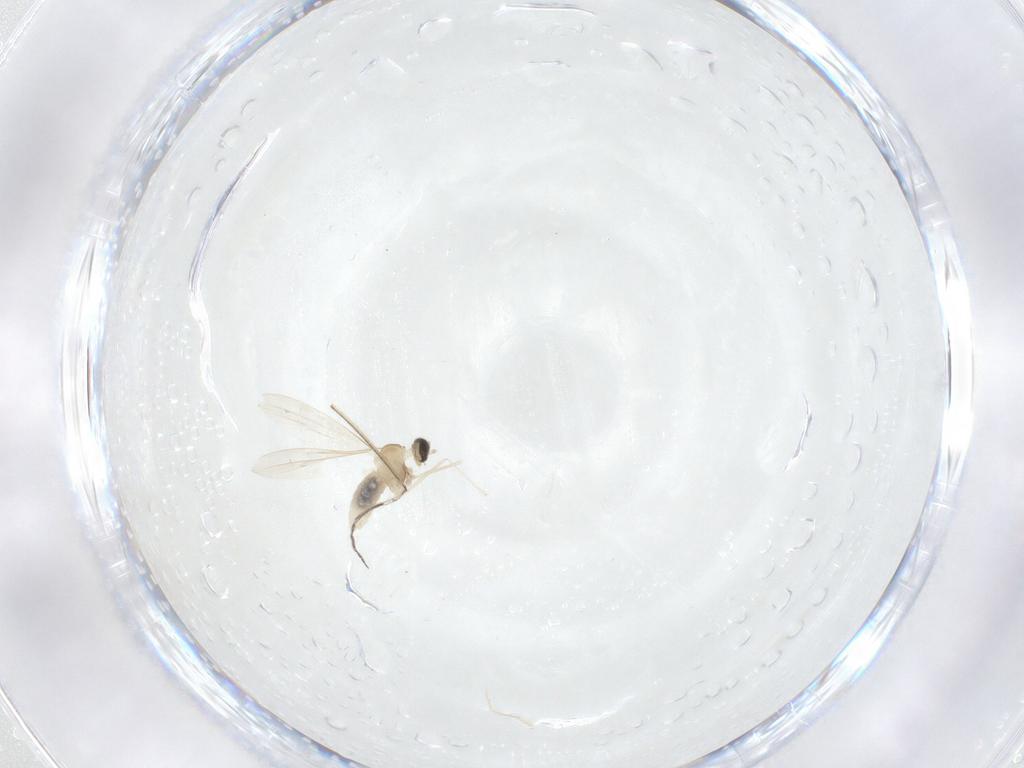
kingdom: Animalia
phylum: Arthropoda
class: Insecta
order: Diptera
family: Cecidomyiidae
